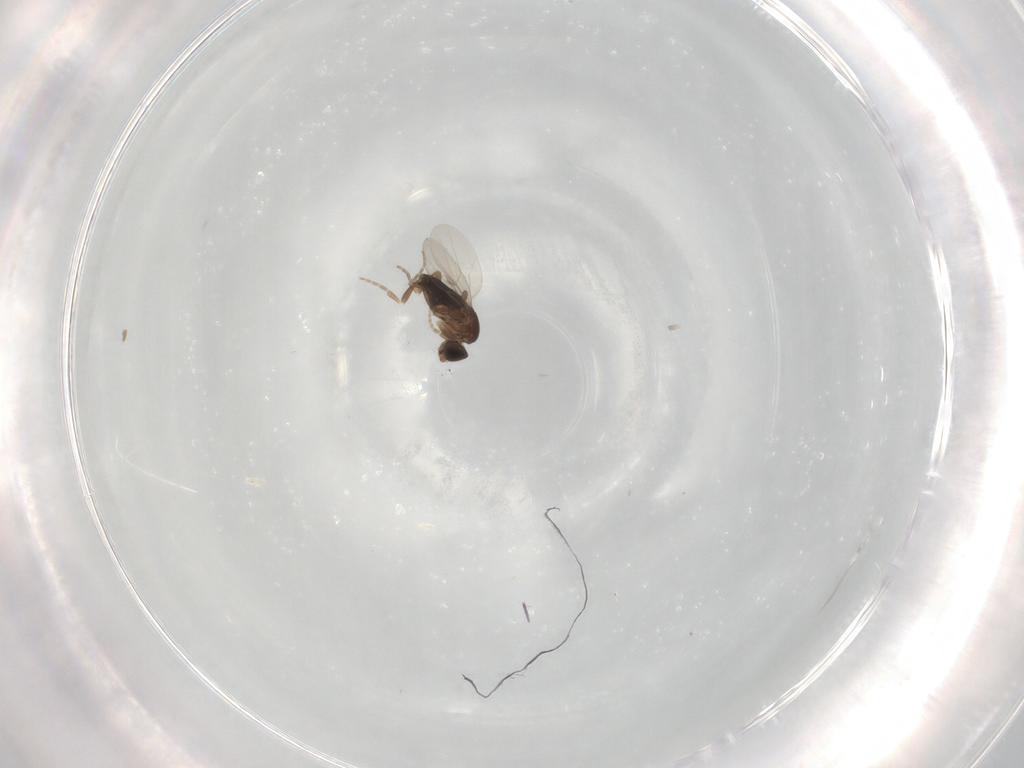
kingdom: Animalia
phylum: Arthropoda
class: Insecta
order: Diptera
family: Phoridae
